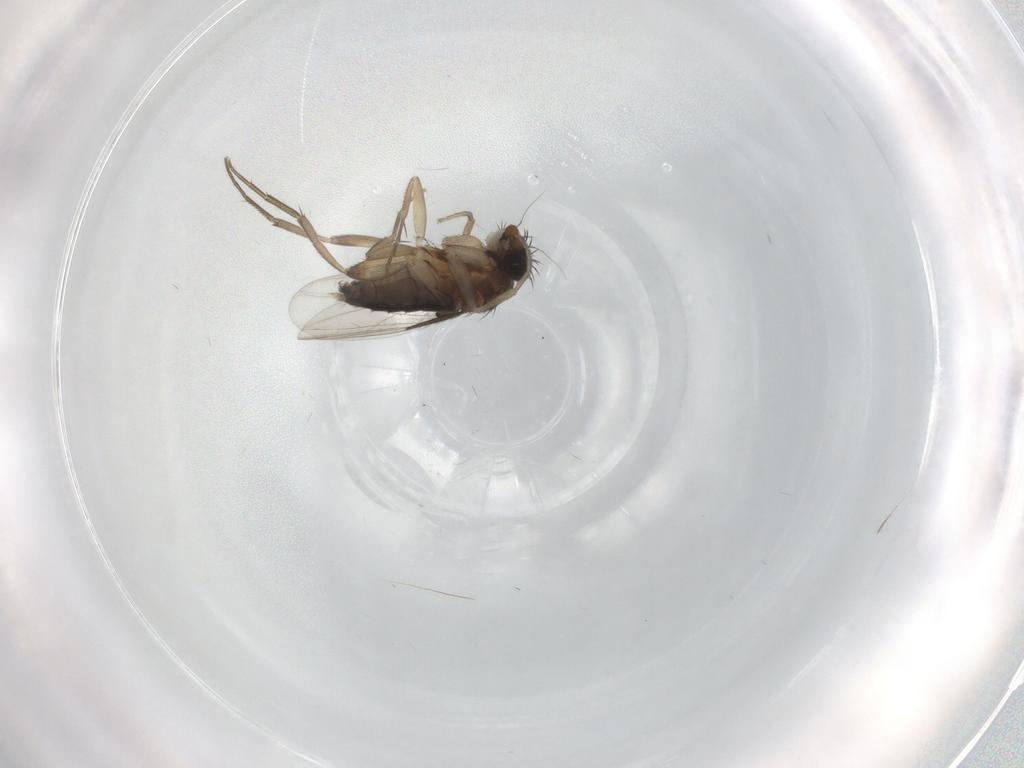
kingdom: Animalia
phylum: Arthropoda
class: Insecta
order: Diptera
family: Phoridae
